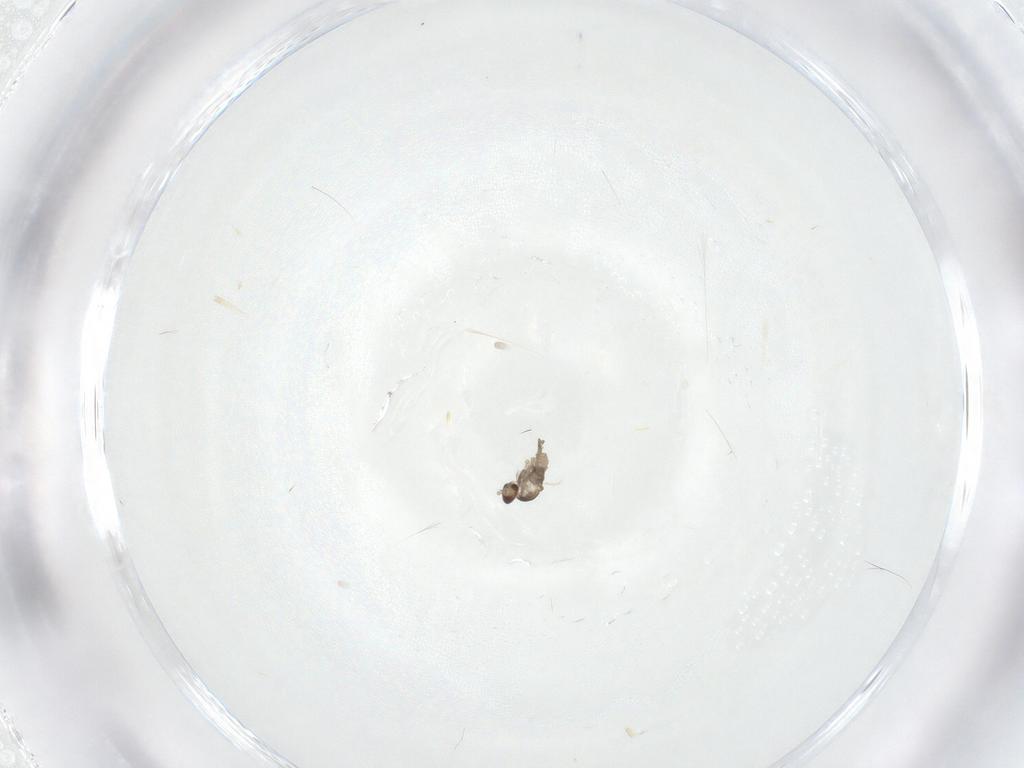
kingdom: Animalia
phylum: Arthropoda
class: Insecta
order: Diptera
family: Cecidomyiidae
